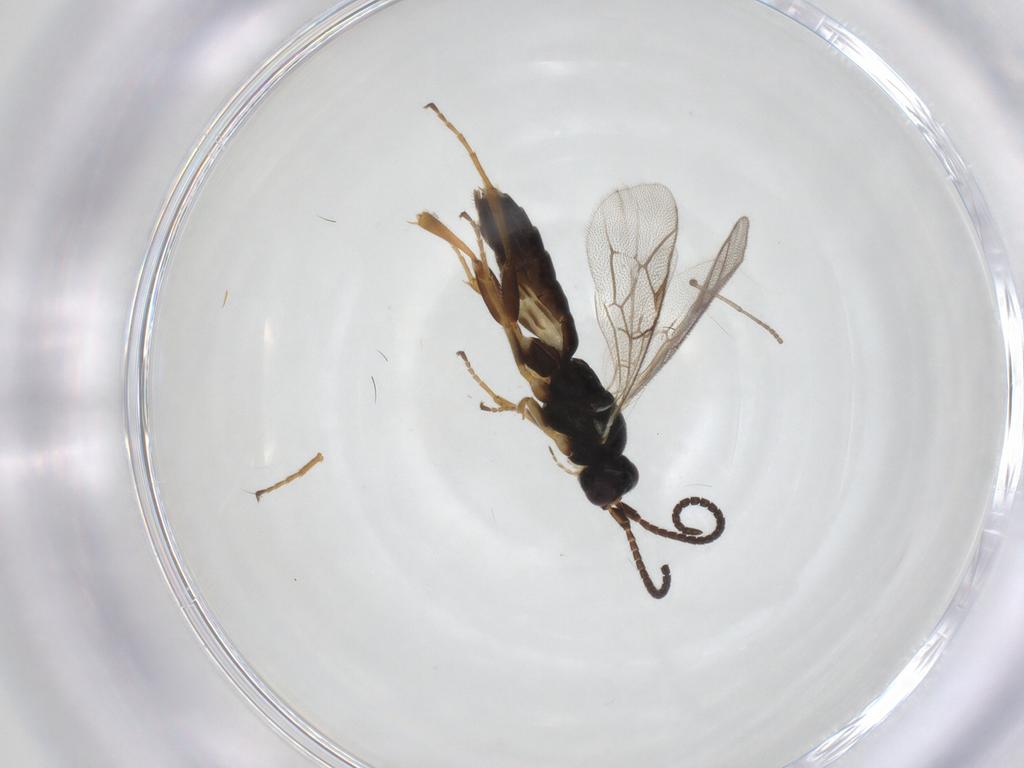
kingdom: Animalia
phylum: Arthropoda
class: Insecta
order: Hymenoptera
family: Ichneumonidae
